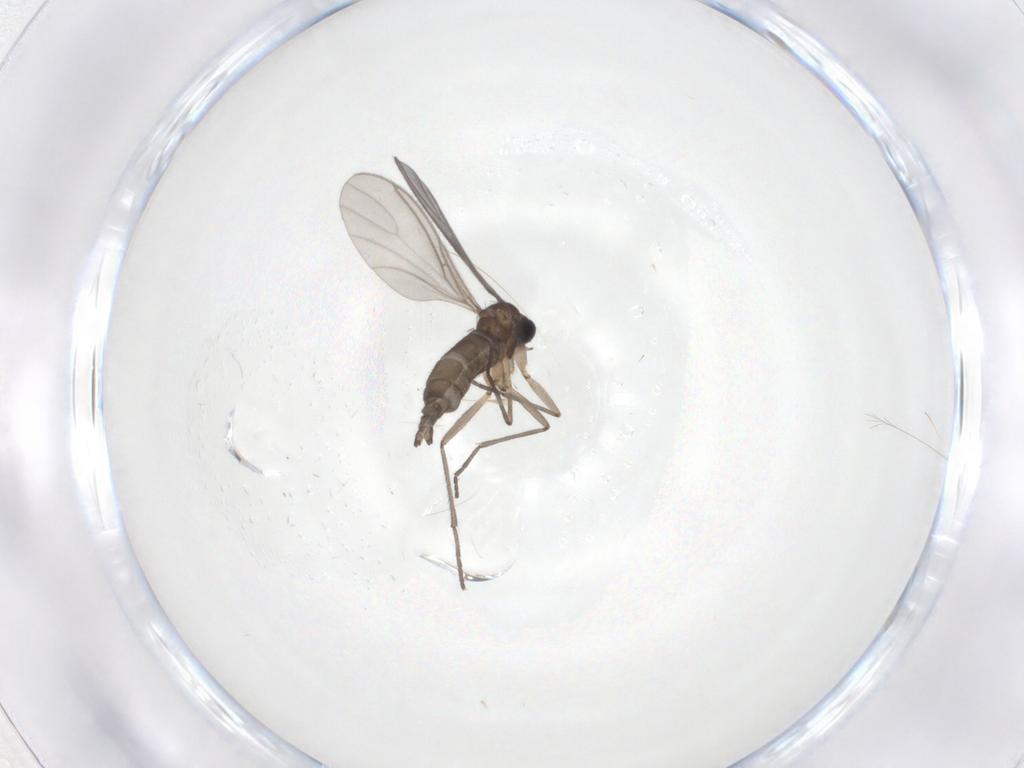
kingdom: Animalia
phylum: Arthropoda
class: Insecta
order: Diptera
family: Sciaridae
